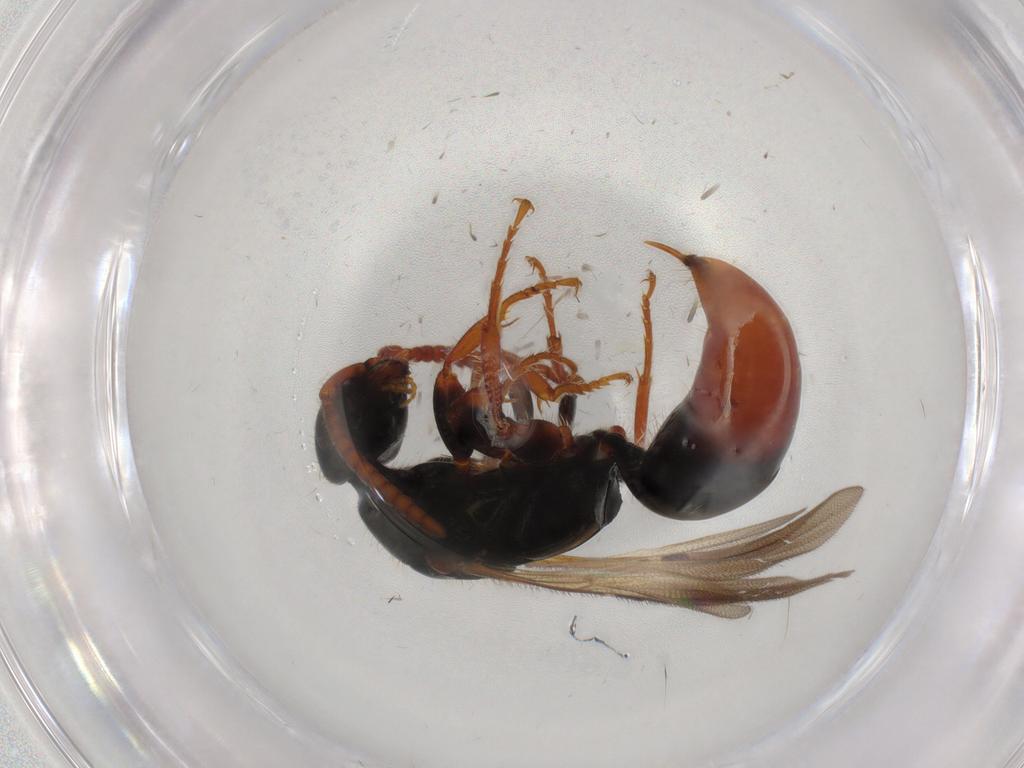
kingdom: Animalia
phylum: Arthropoda
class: Insecta
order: Hymenoptera
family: Bethylidae
